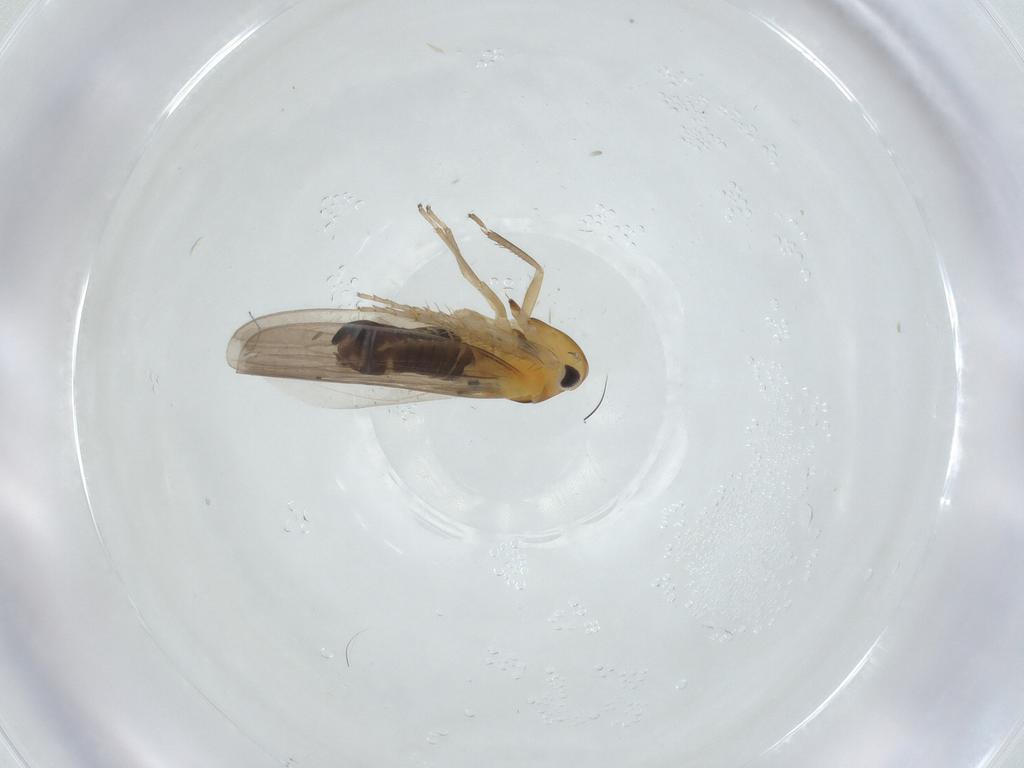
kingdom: Animalia
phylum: Arthropoda
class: Insecta
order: Hemiptera
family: Cicadellidae
